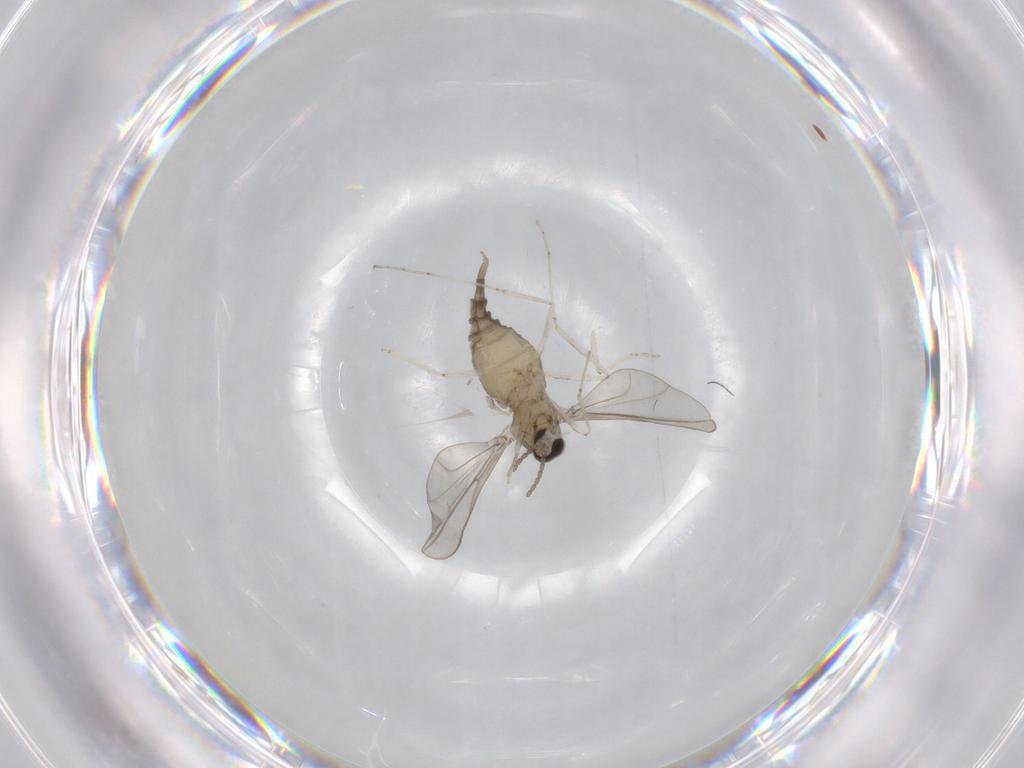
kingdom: Animalia
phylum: Arthropoda
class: Insecta
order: Diptera
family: Cecidomyiidae
